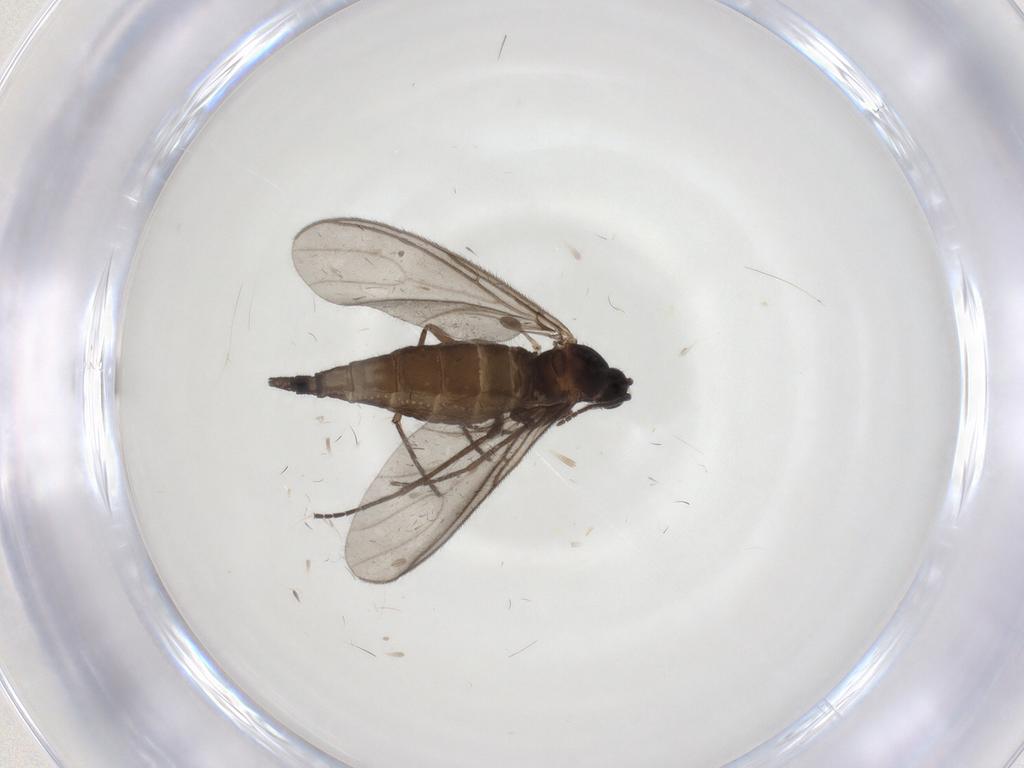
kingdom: Animalia
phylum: Arthropoda
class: Insecta
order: Diptera
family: Sciaridae
